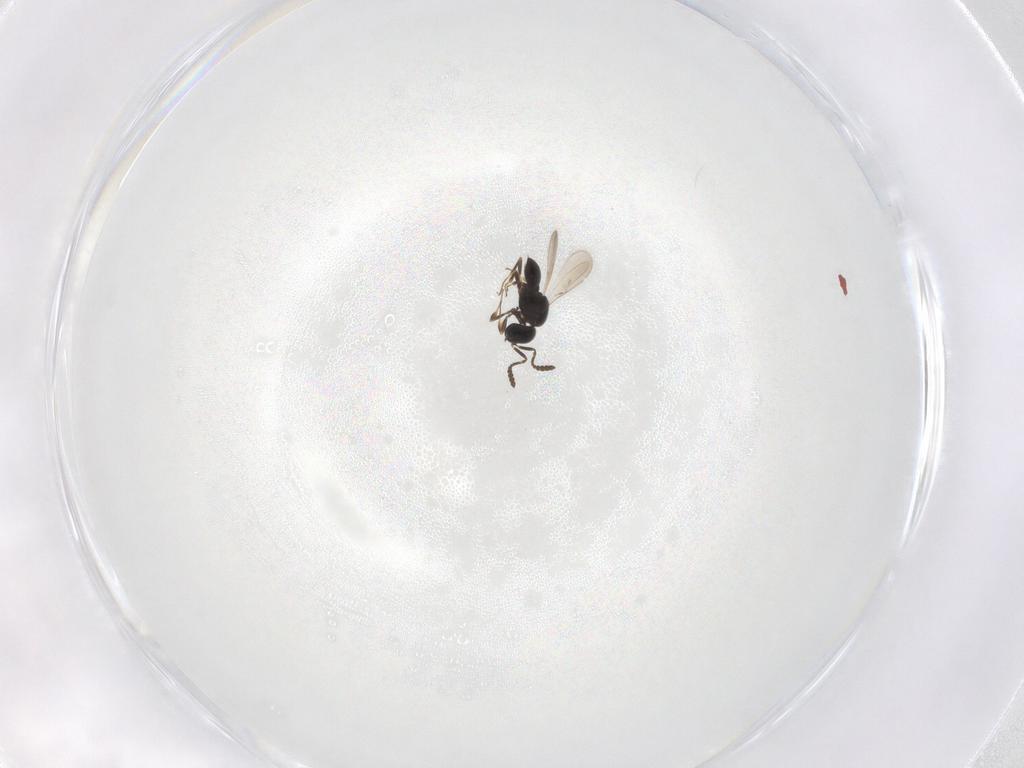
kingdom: Animalia
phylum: Arthropoda
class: Insecta
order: Hymenoptera
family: Scelionidae
